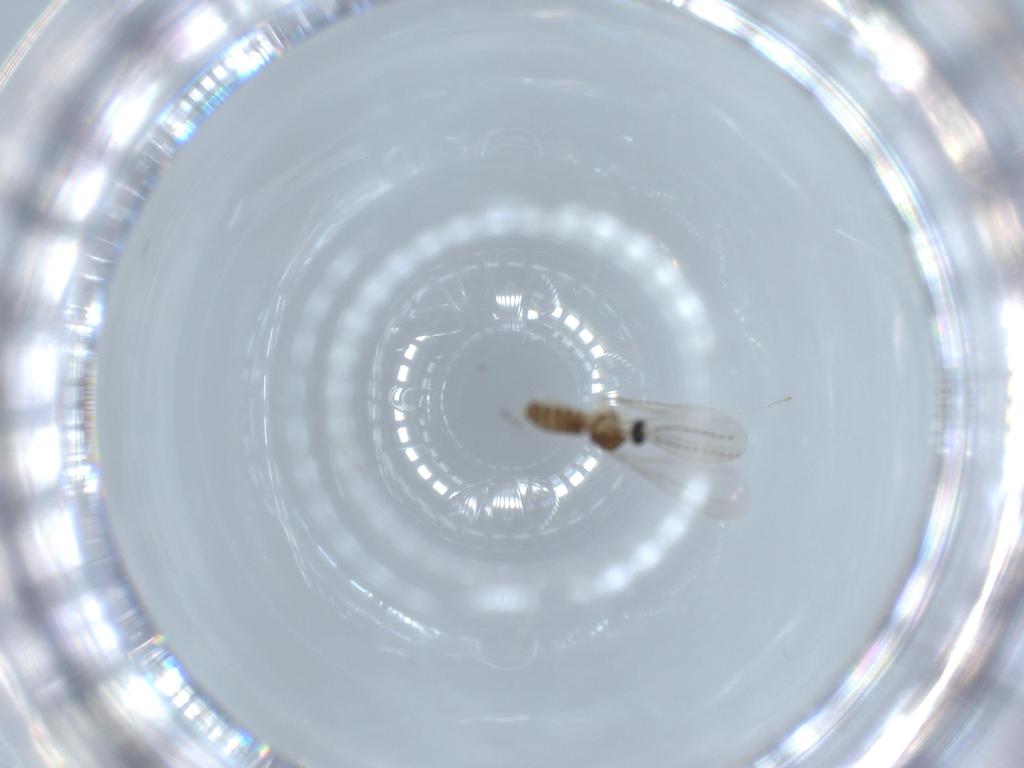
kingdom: Animalia
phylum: Arthropoda
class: Insecta
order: Diptera
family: Cecidomyiidae
